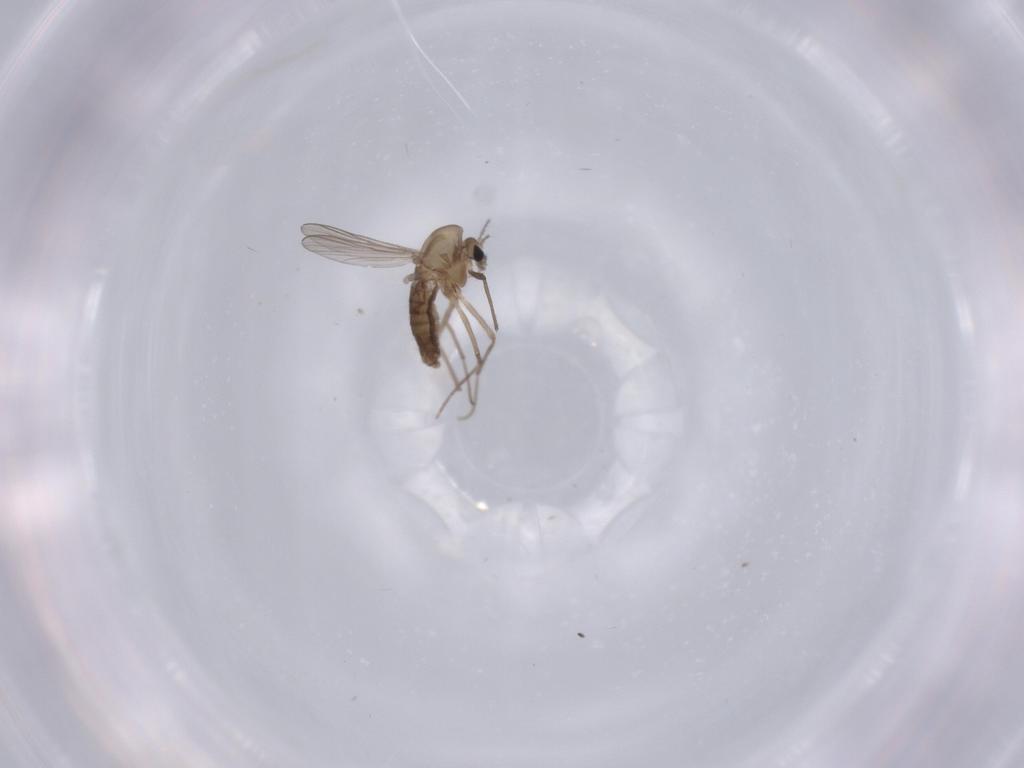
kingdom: Animalia
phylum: Arthropoda
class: Insecta
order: Diptera
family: Chironomidae
